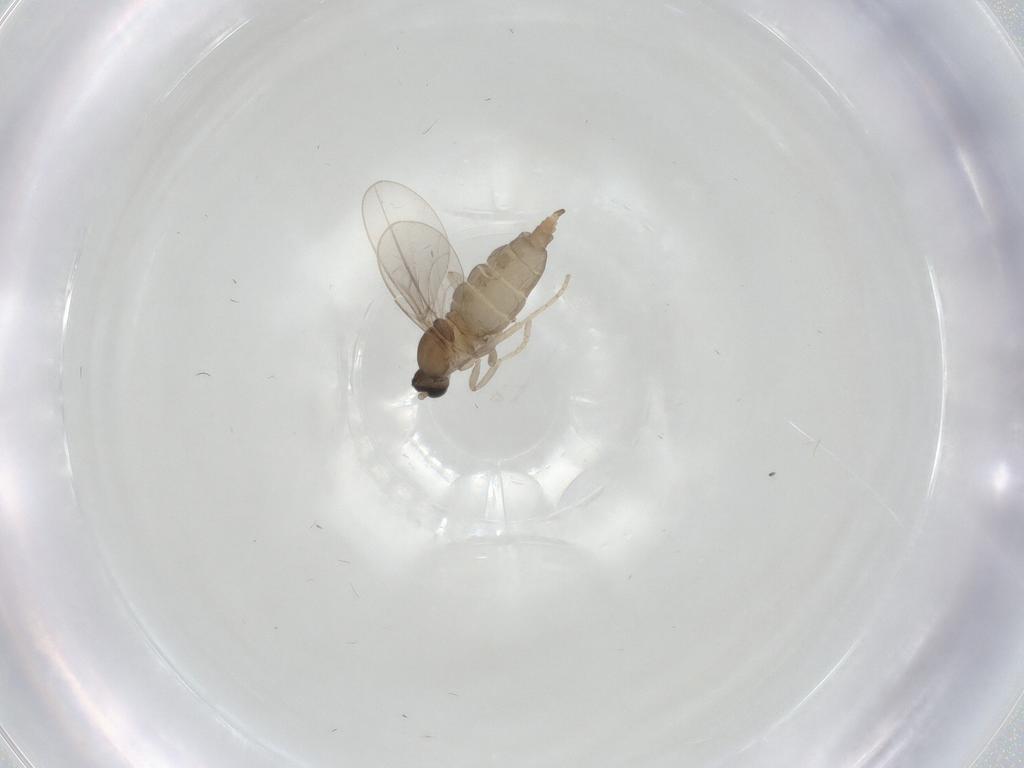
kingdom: Animalia
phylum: Arthropoda
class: Insecta
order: Diptera
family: Cecidomyiidae
